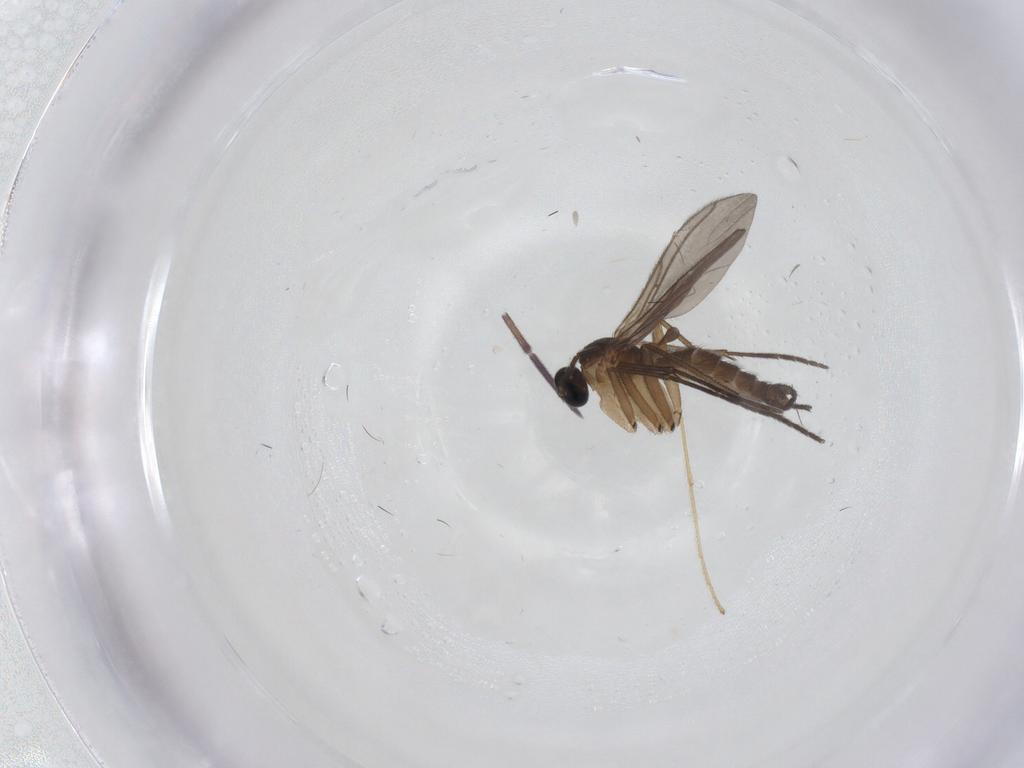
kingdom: Animalia
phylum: Arthropoda
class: Insecta
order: Diptera
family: Sciaridae
